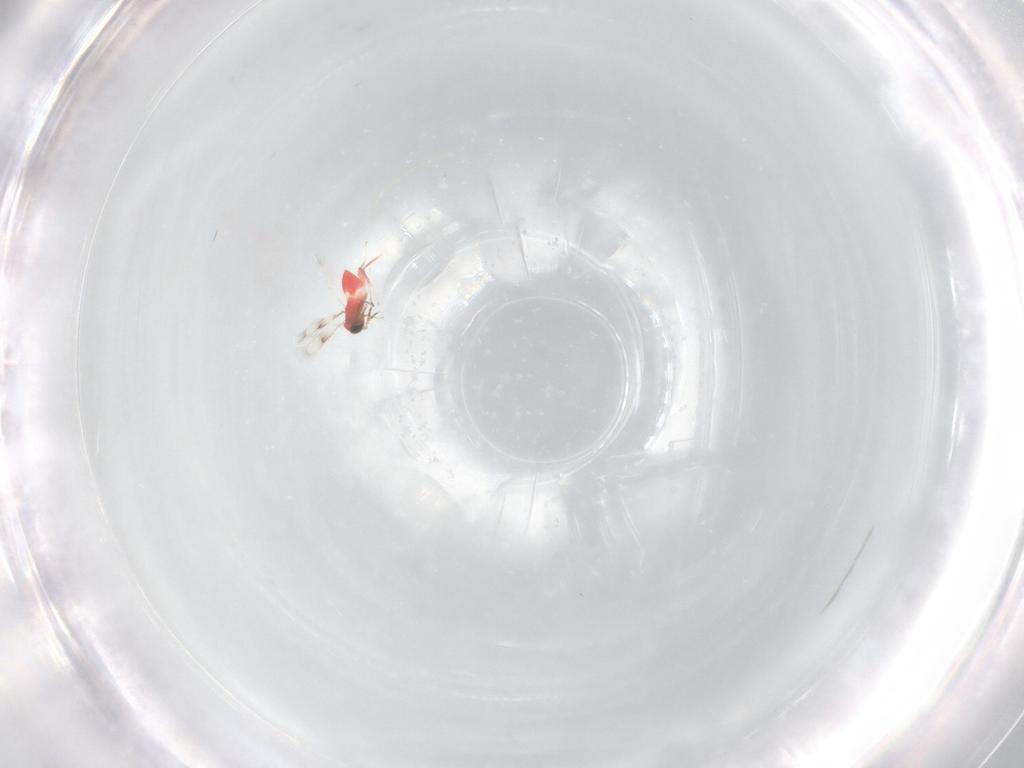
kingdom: Animalia
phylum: Arthropoda
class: Insecta
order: Hymenoptera
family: Trichogrammatidae
